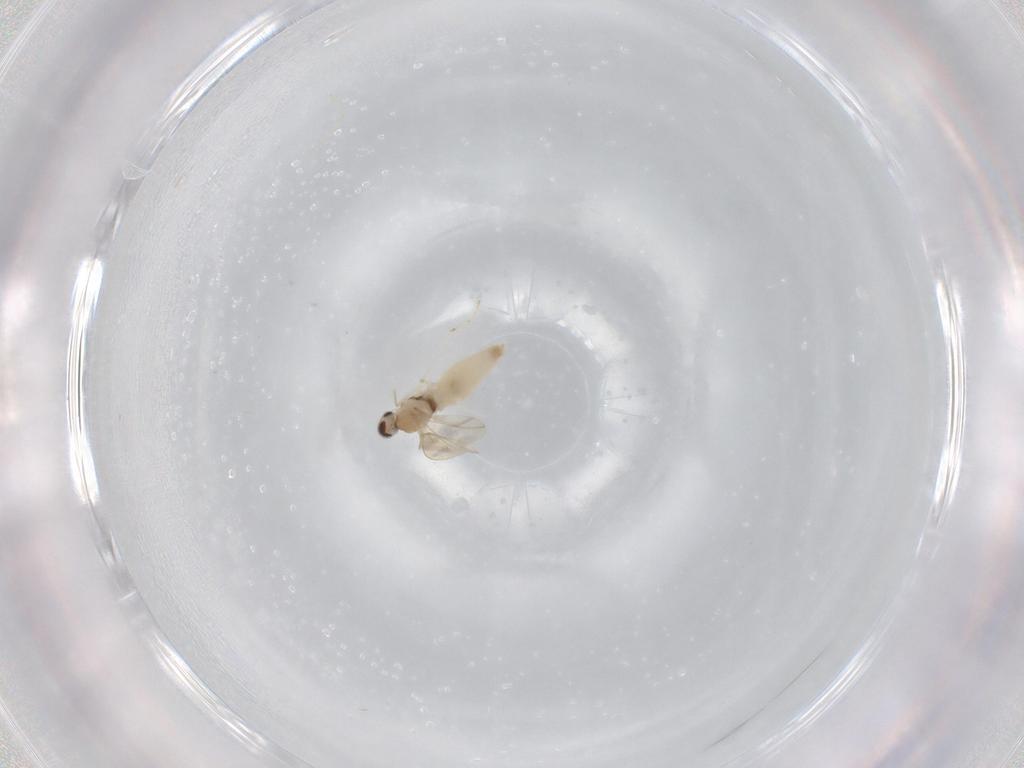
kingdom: Animalia
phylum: Arthropoda
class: Insecta
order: Diptera
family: Cecidomyiidae
